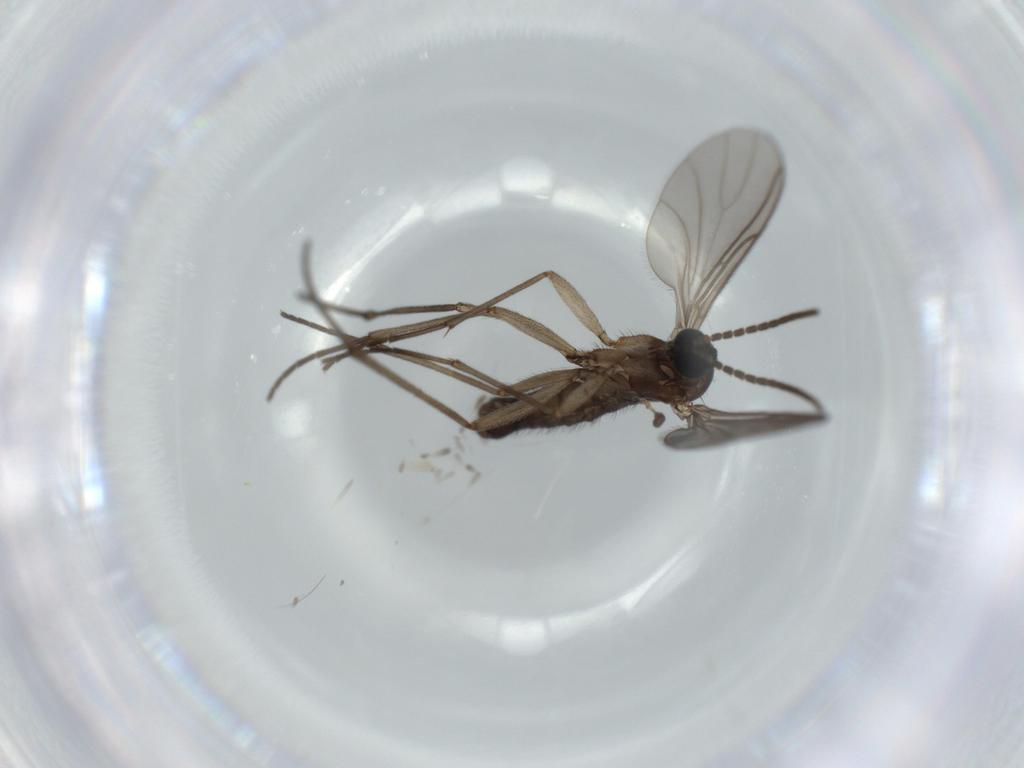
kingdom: Animalia
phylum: Arthropoda
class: Insecta
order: Diptera
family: Sciaridae
